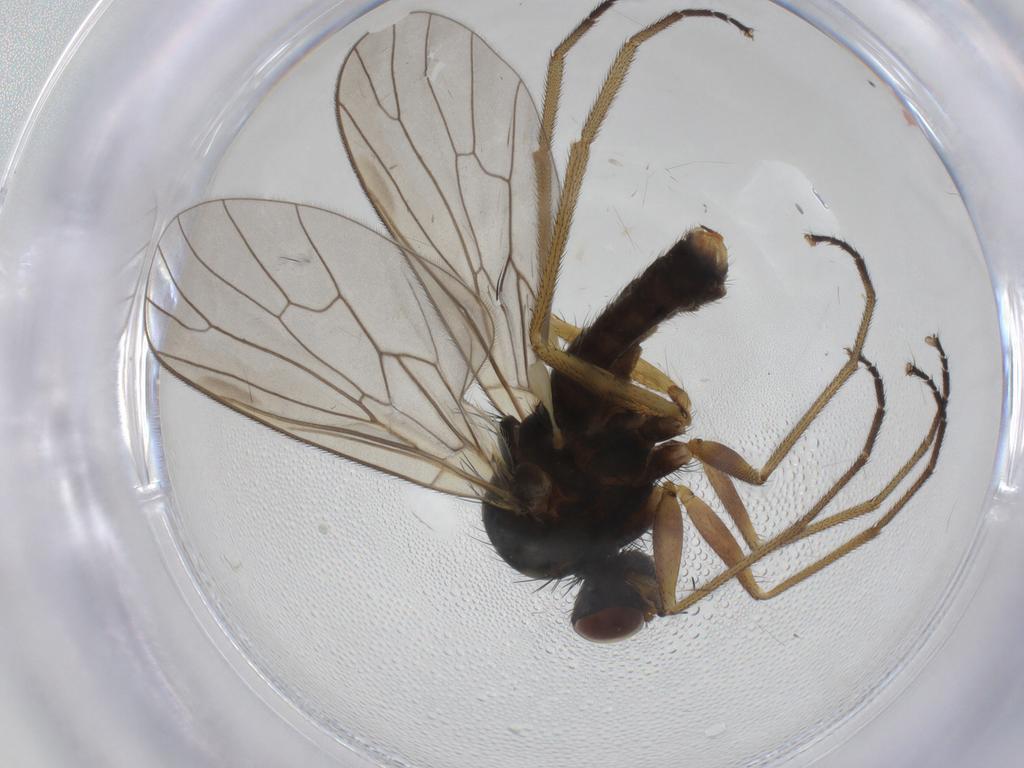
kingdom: Animalia
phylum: Arthropoda
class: Insecta
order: Diptera
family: Brachystomatidae
